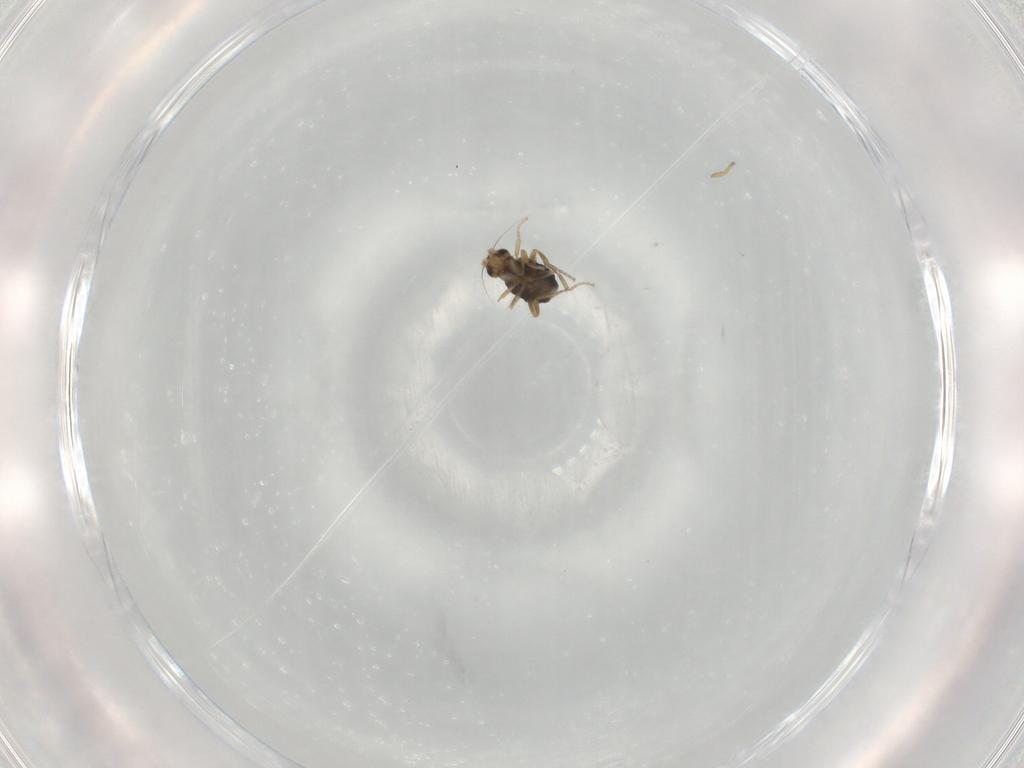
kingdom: Animalia
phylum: Arthropoda
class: Insecta
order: Diptera
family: Phoridae
